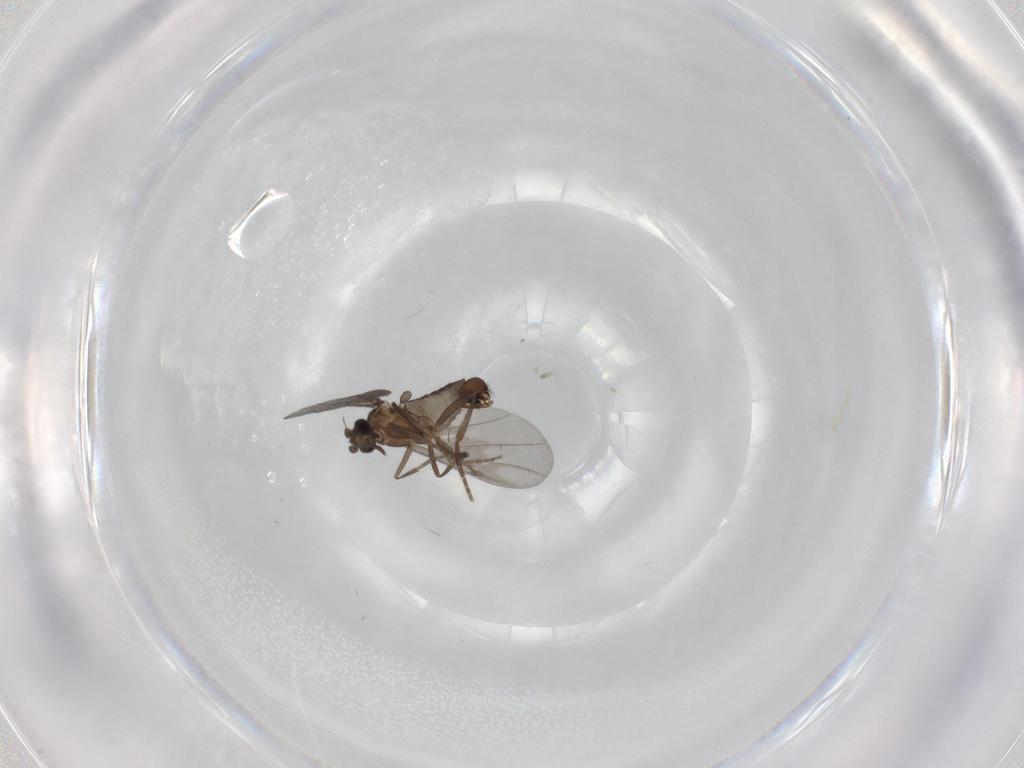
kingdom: Animalia
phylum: Arthropoda
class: Insecta
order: Diptera
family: Phoridae
